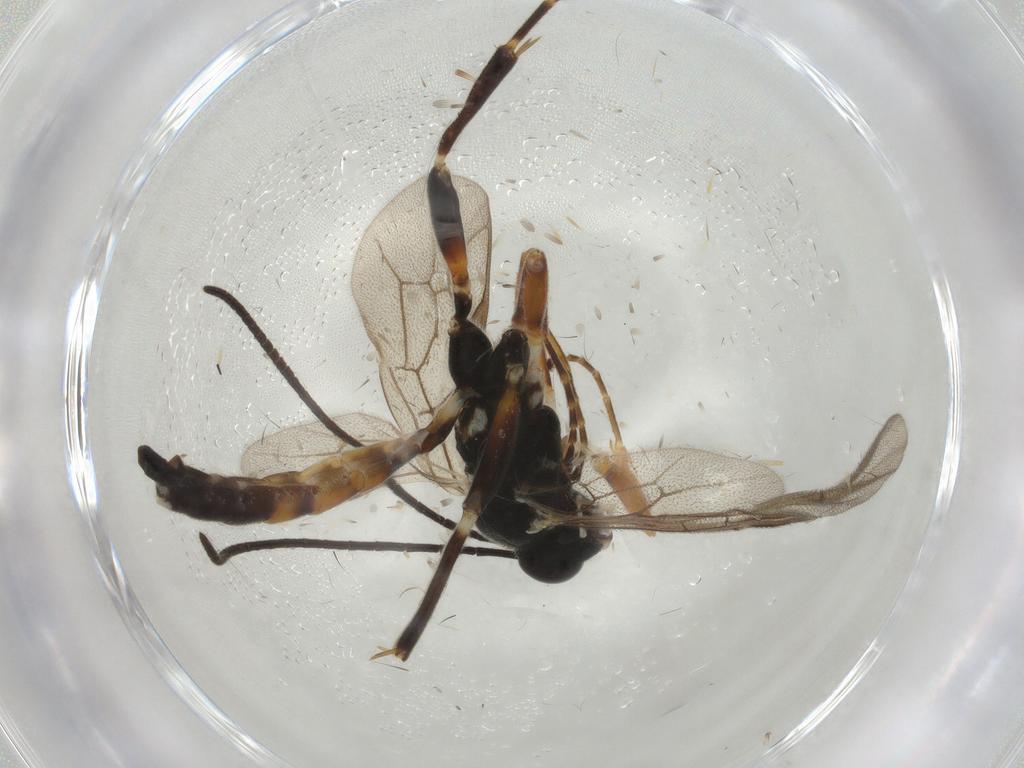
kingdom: Animalia
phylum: Arthropoda
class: Insecta
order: Hymenoptera
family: Ichneumonidae
